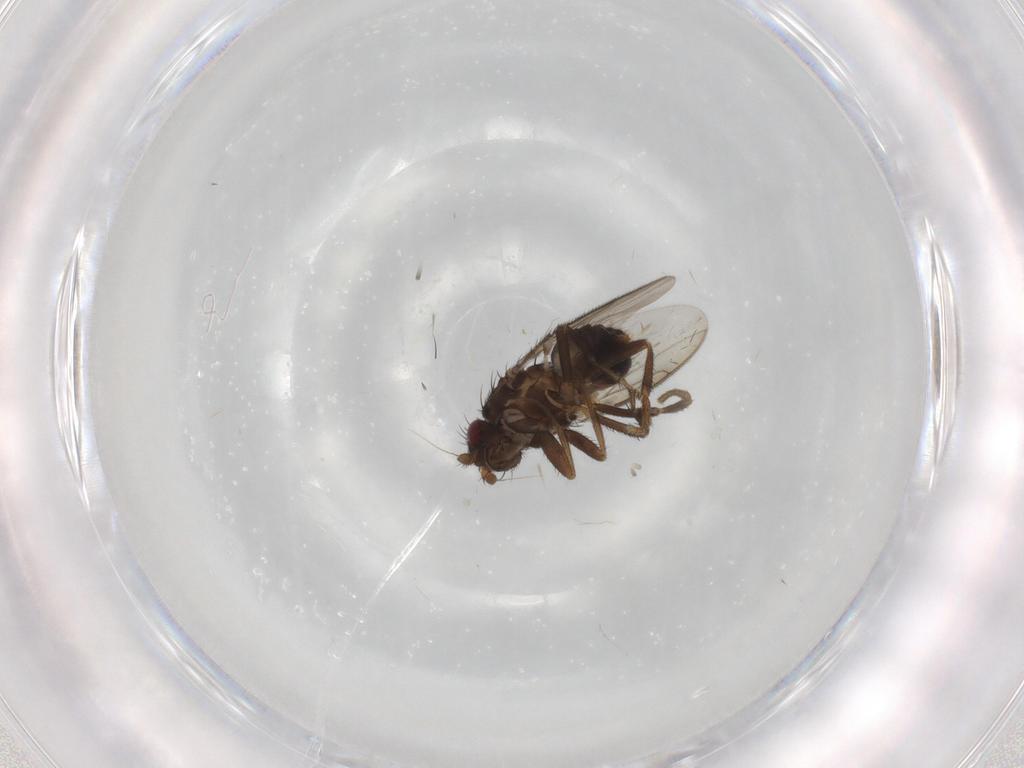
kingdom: Animalia
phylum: Arthropoda
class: Insecta
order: Diptera
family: Sphaeroceridae
